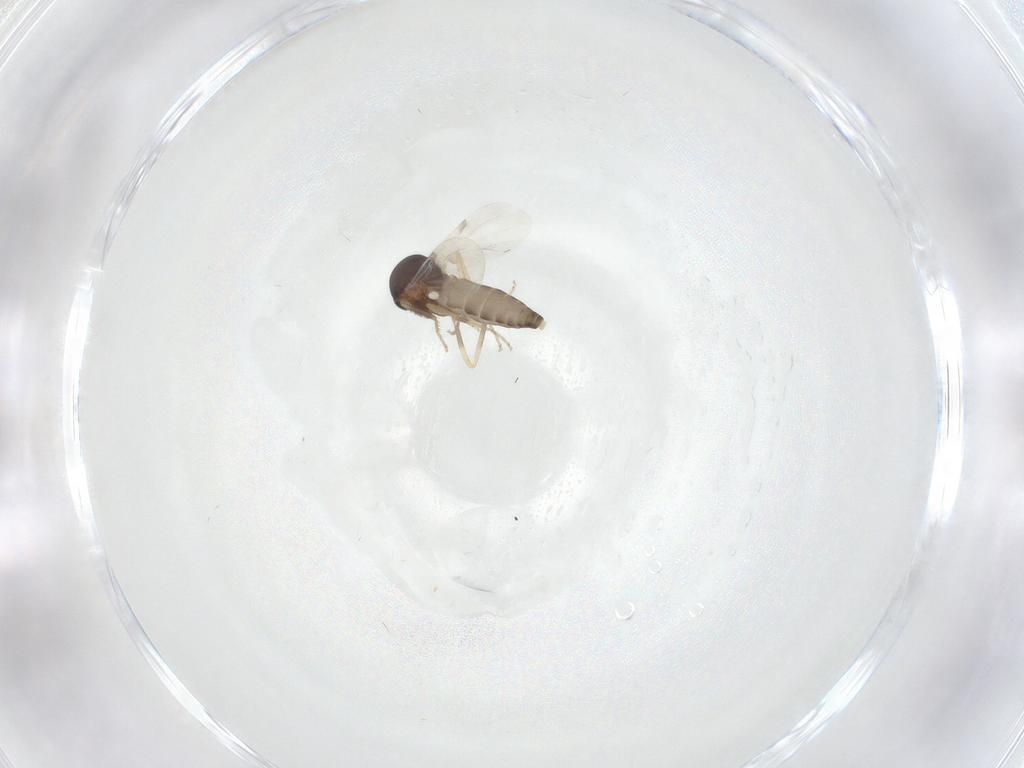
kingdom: Animalia
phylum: Arthropoda
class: Insecta
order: Diptera
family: Ceratopogonidae
